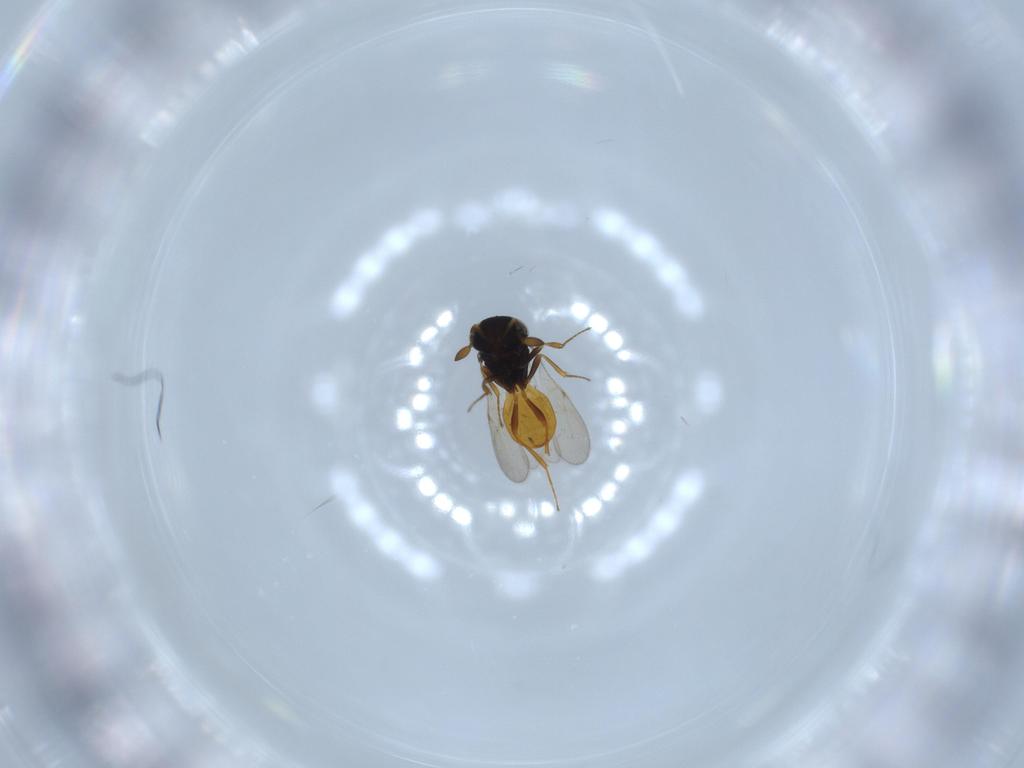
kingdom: Animalia
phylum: Arthropoda
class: Insecta
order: Hymenoptera
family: Scelionidae
